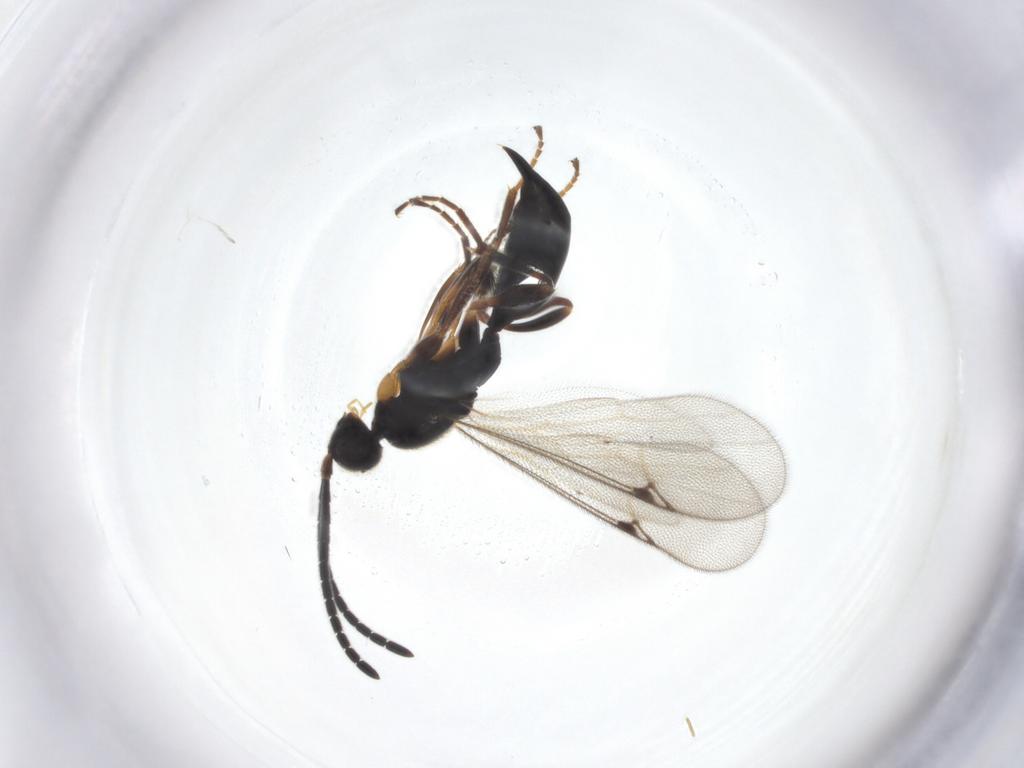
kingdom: Animalia
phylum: Arthropoda
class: Insecta
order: Hymenoptera
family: Proctotrupidae
